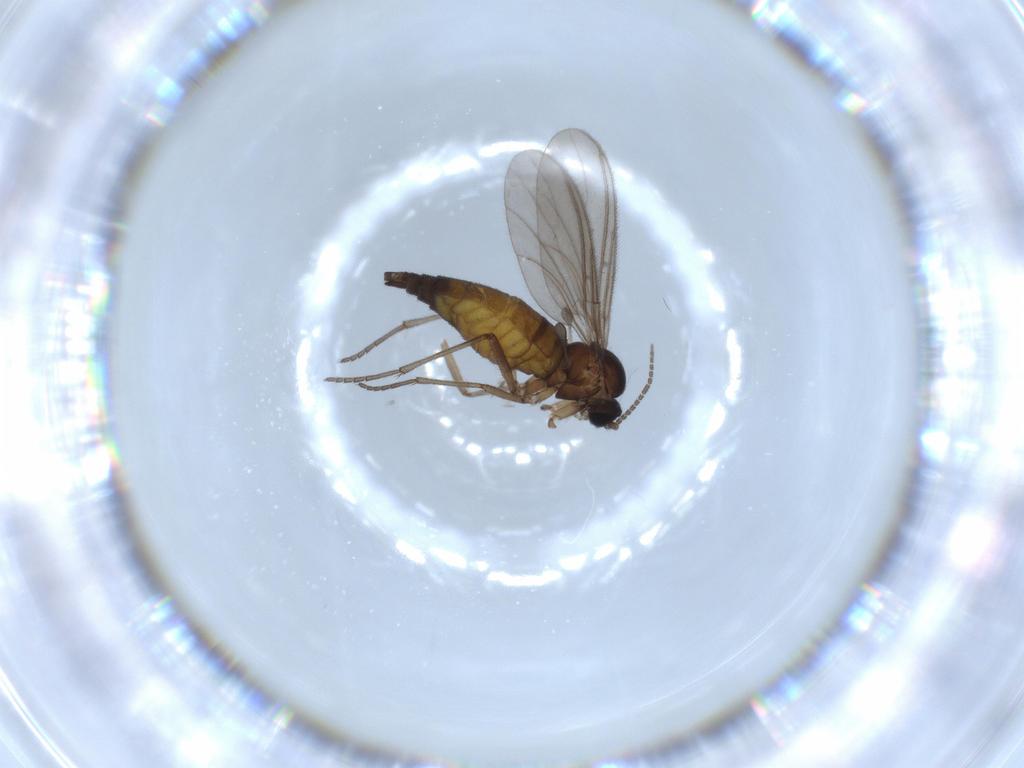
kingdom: Animalia
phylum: Arthropoda
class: Insecta
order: Diptera
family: Sciaridae
